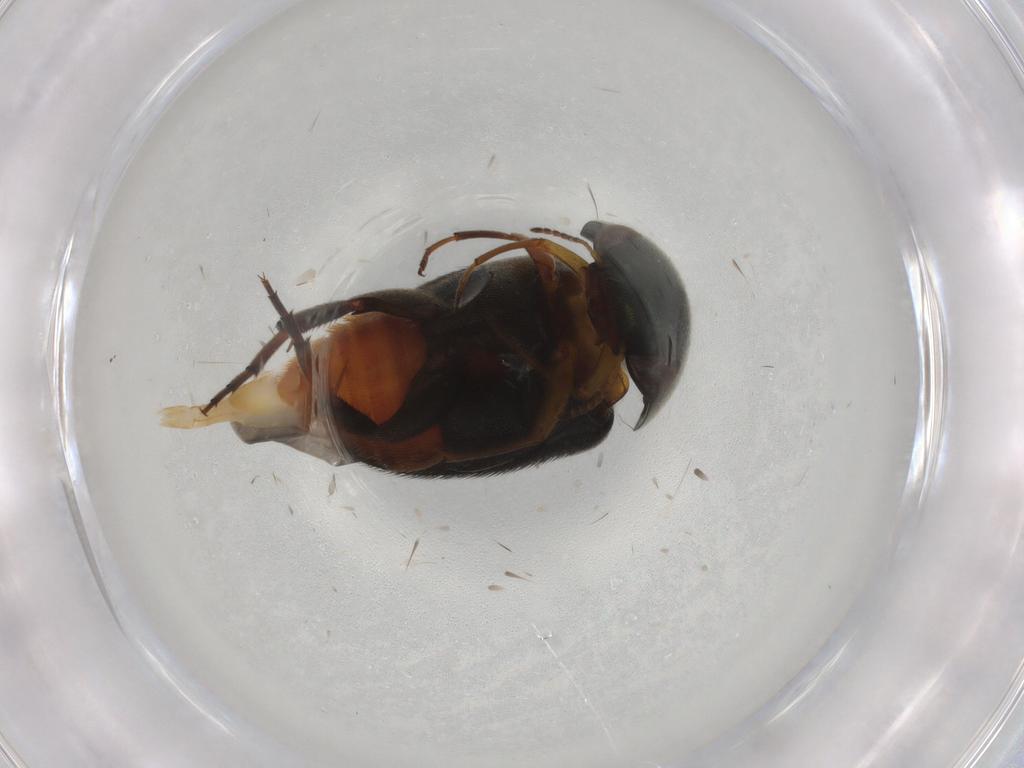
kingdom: Animalia
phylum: Arthropoda
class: Insecta
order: Coleoptera
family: Mordellidae
